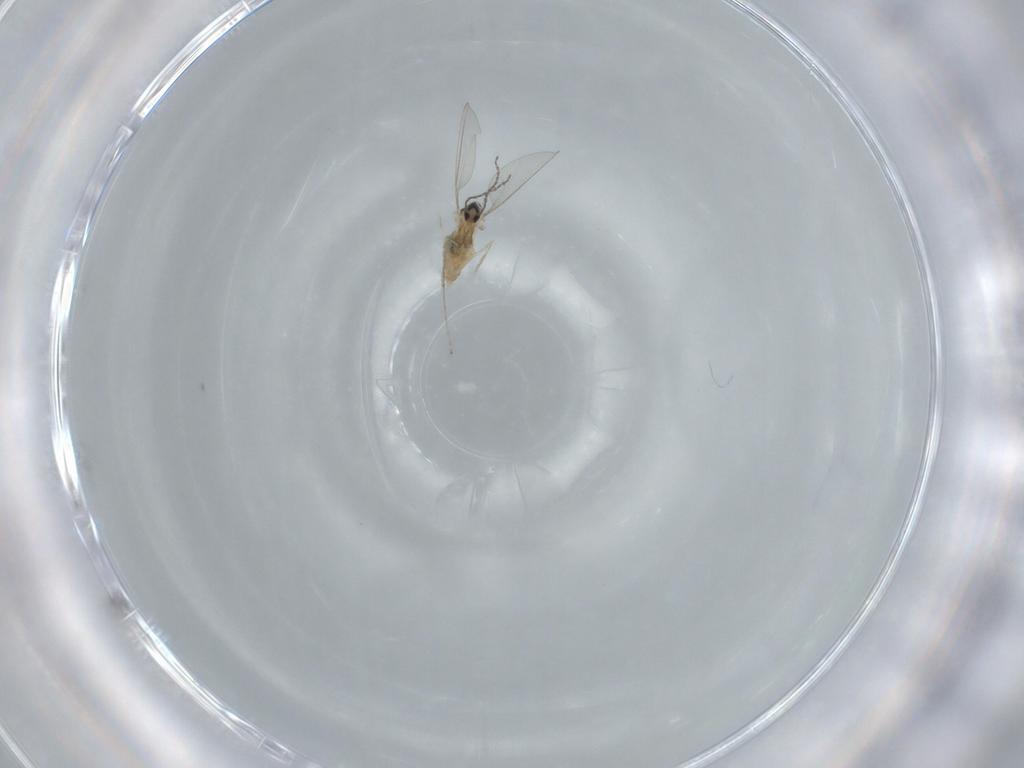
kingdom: Animalia
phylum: Arthropoda
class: Insecta
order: Diptera
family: Cecidomyiidae
